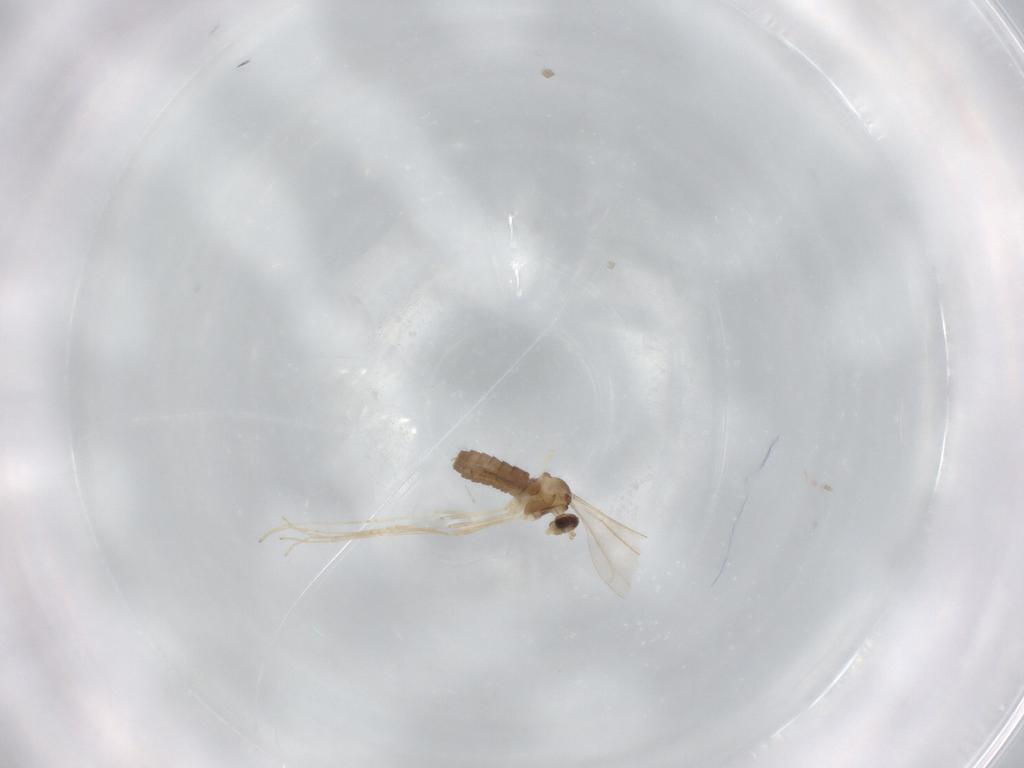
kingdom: Animalia
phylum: Arthropoda
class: Insecta
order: Diptera
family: Cecidomyiidae
